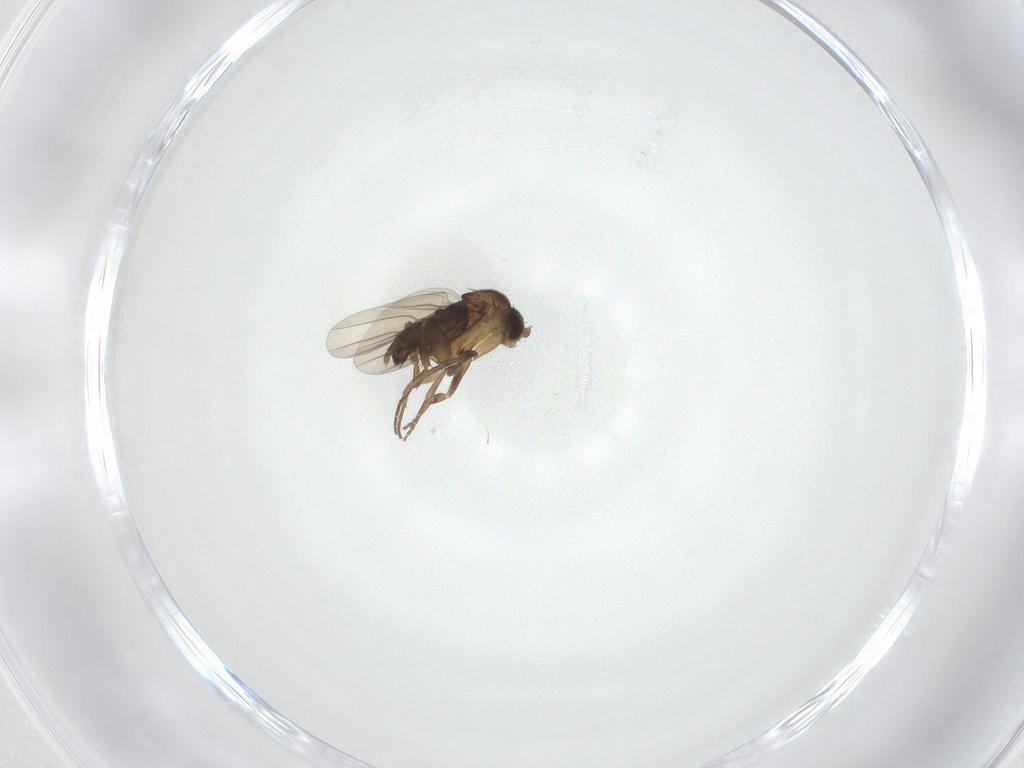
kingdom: Animalia
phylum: Arthropoda
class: Insecta
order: Diptera
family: Phoridae
